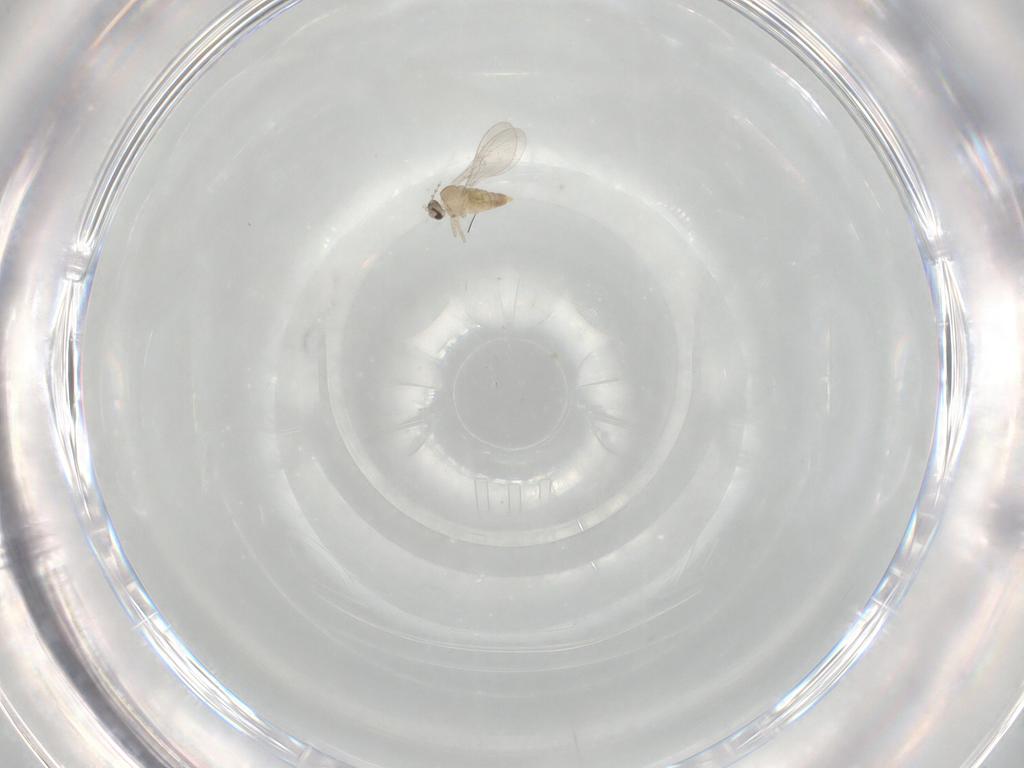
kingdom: Animalia
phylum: Arthropoda
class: Insecta
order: Diptera
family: Cecidomyiidae
